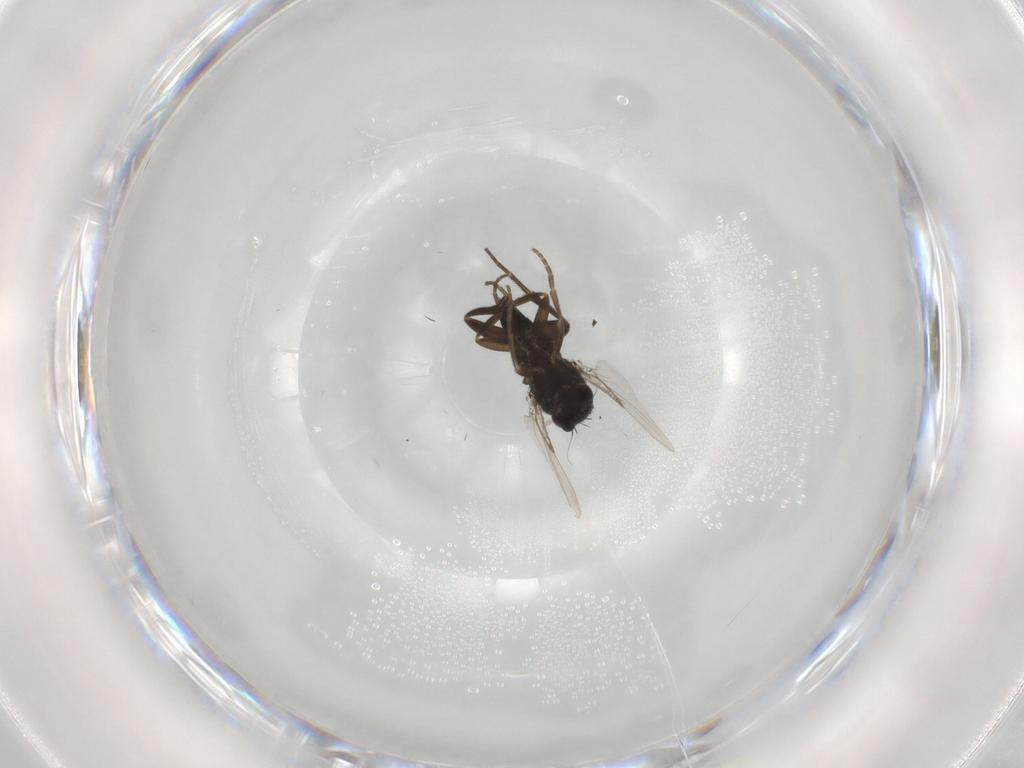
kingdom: Animalia
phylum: Arthropoda
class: Insecta
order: Diptera
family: Phoridae
